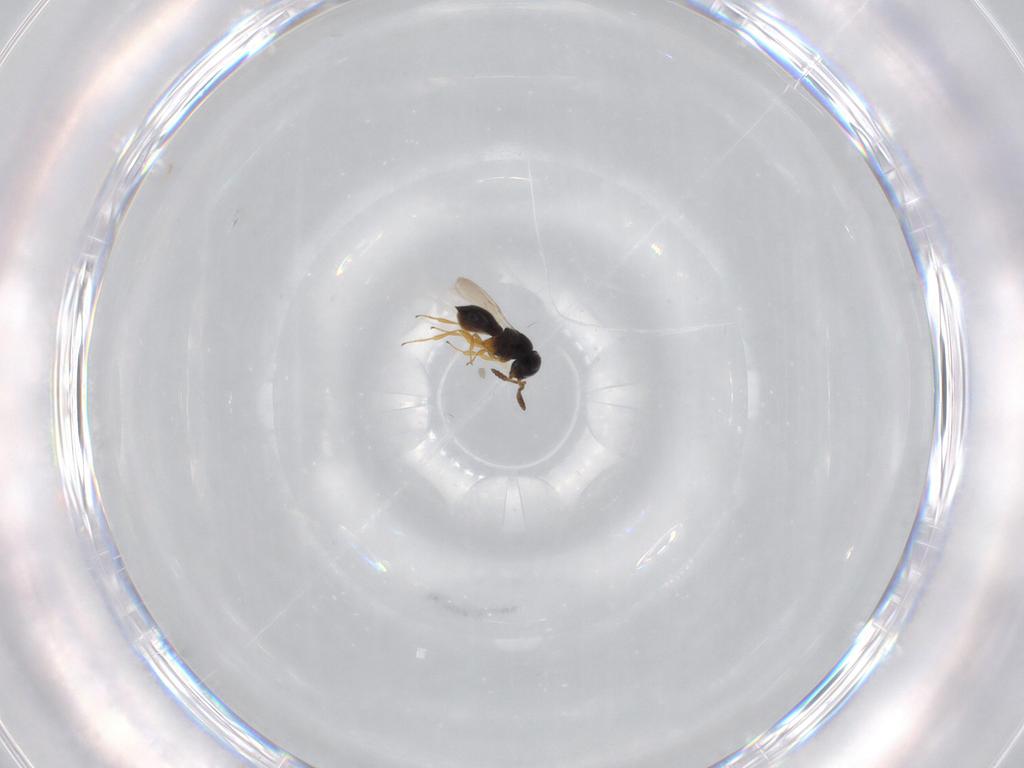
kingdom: Animalia
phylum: Arthropoda
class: Insecta
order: Hymenoptera
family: Scelionidae
